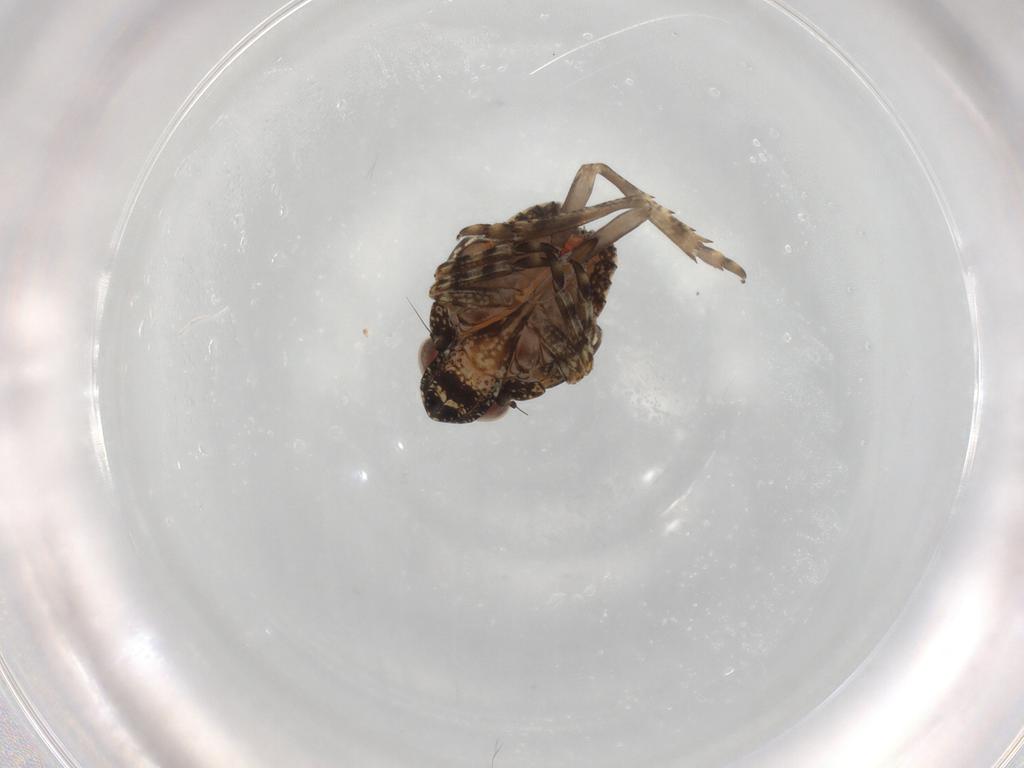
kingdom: Animalia
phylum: Arthropoda
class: Insecta
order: Hemiptera
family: Nogodinidae
